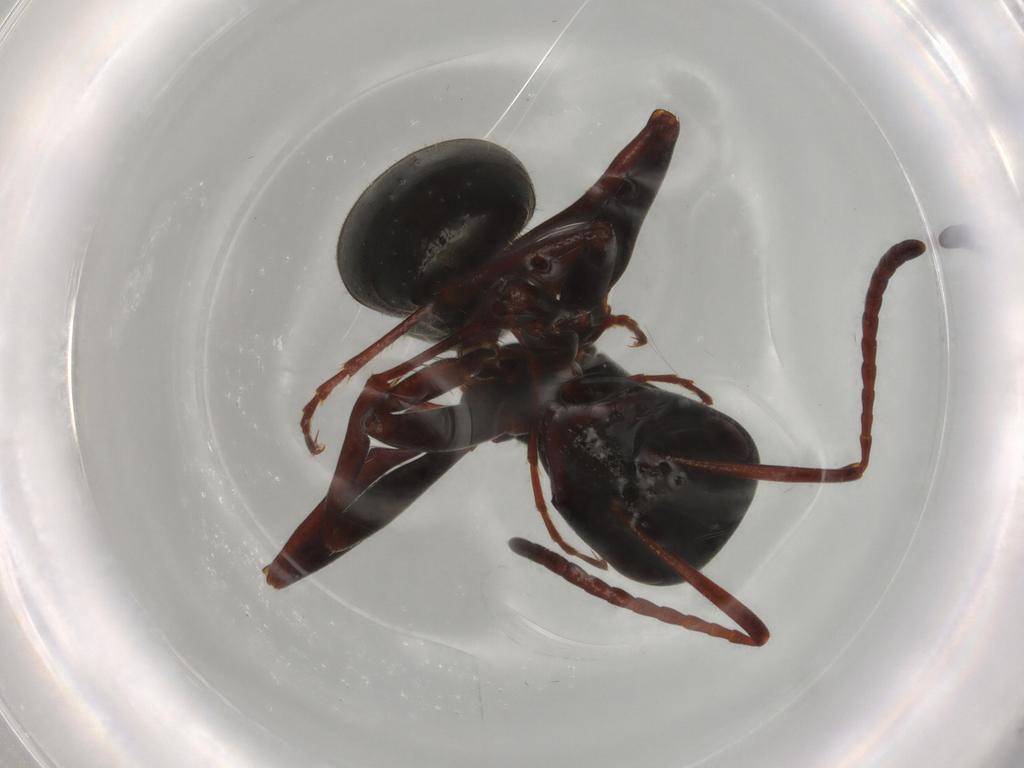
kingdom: Animalia
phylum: Arthropoda
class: Insecta
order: Hymenoptera
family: Formicidae
